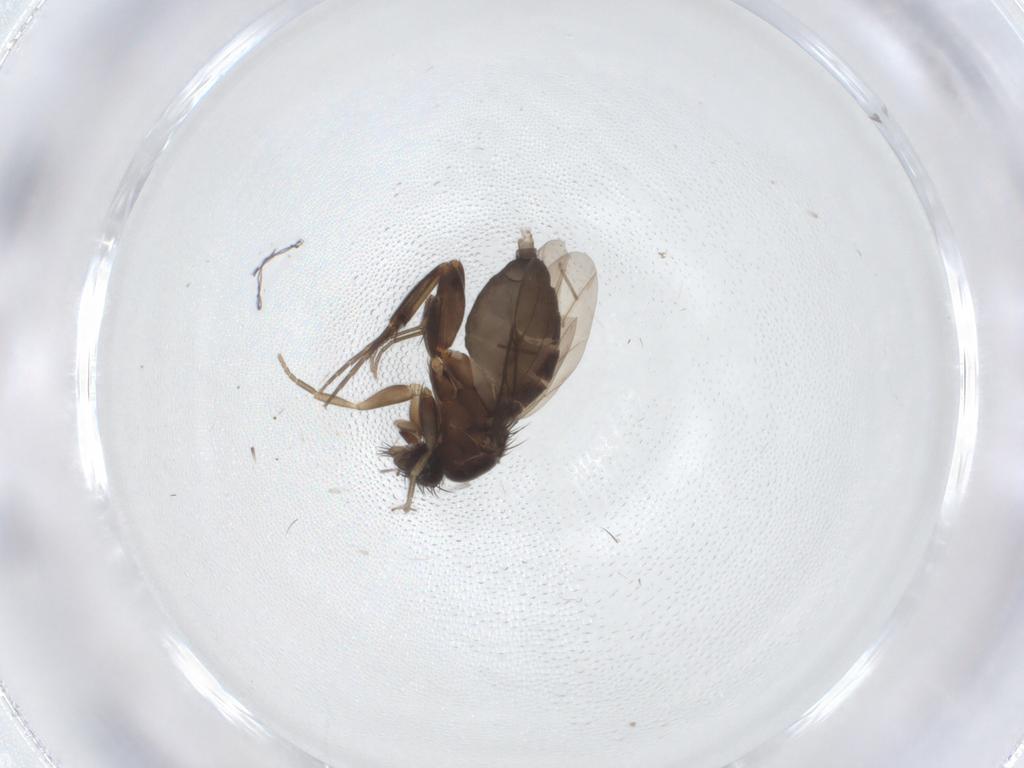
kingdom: Animalia
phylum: Arthropoda
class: Insecta
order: Diptera
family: Phoridae
